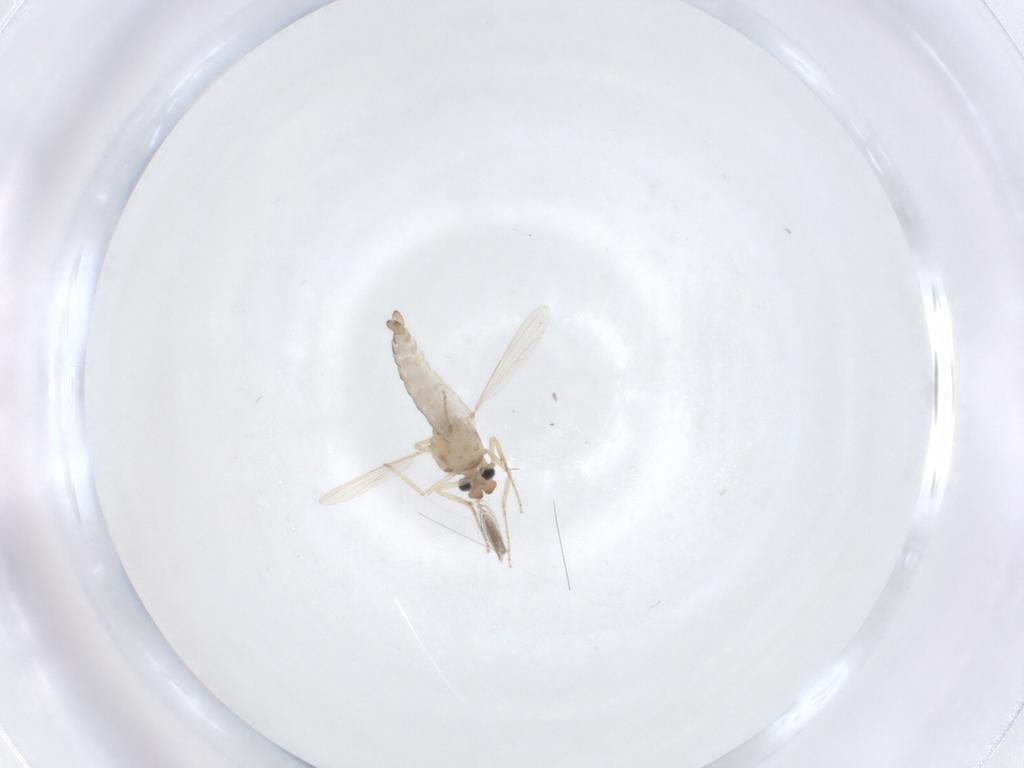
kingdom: Animalia
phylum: Arthropoda
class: Insecta
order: Diptera
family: Ceratopogonidae
